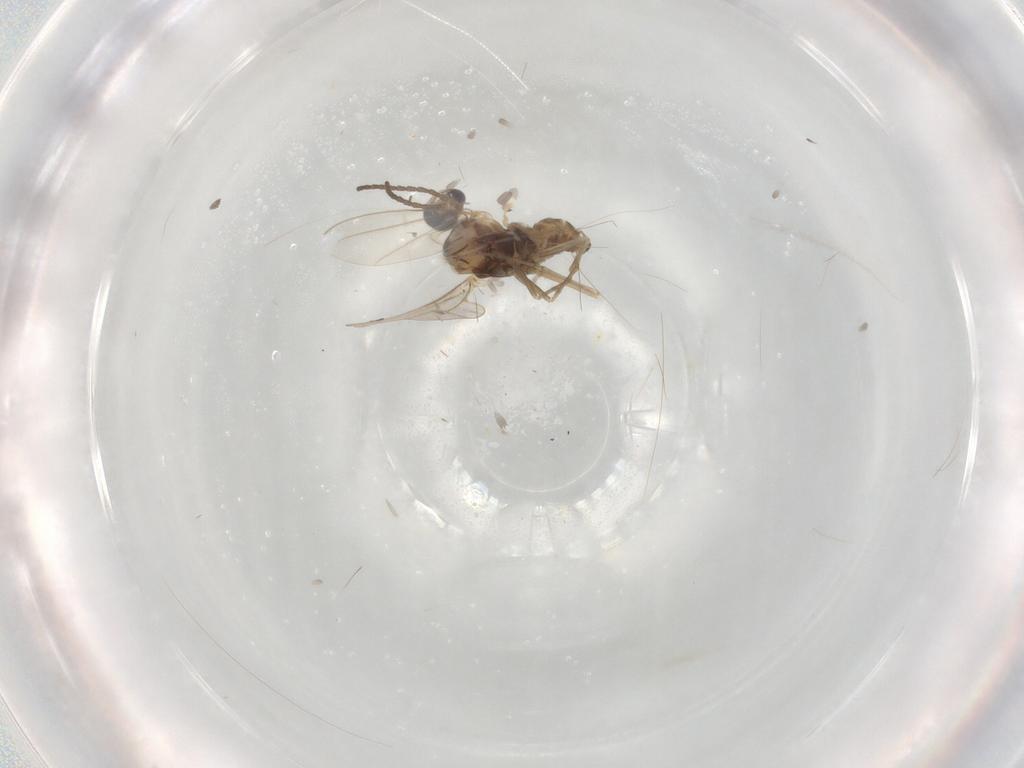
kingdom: Animalia
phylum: Arthropoda
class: Insecta
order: Diptera
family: Cecidomyiidae
